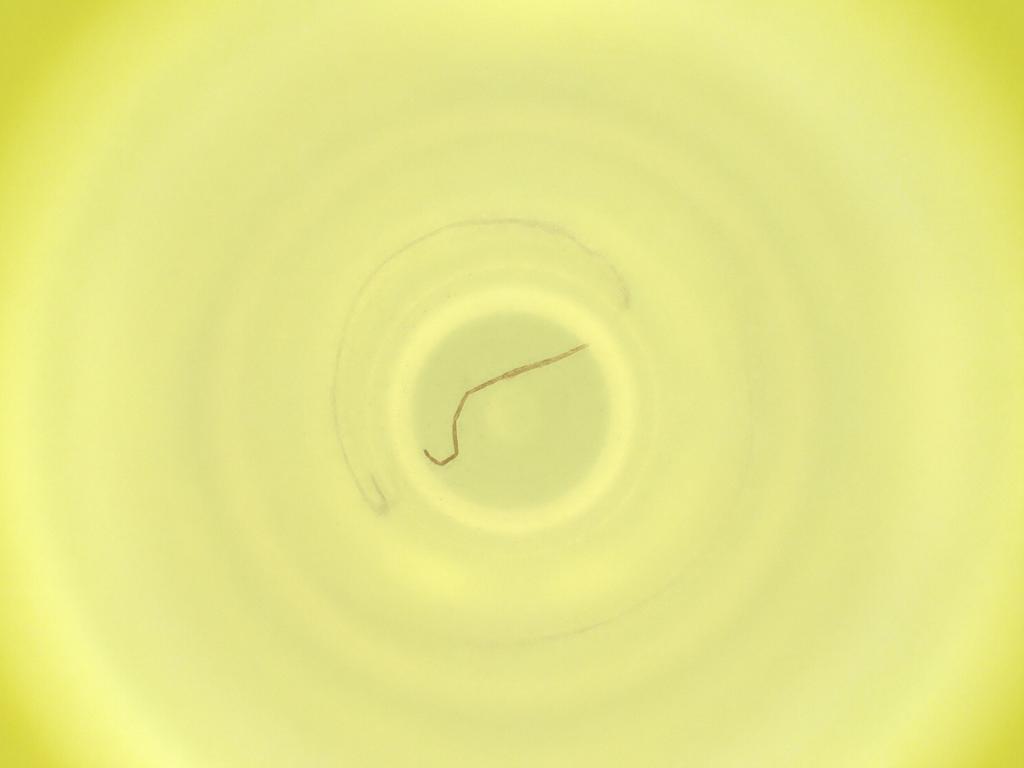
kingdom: Animalia
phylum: Arthropoda
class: Insecta
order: Diptera
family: Cecidomyiidae
